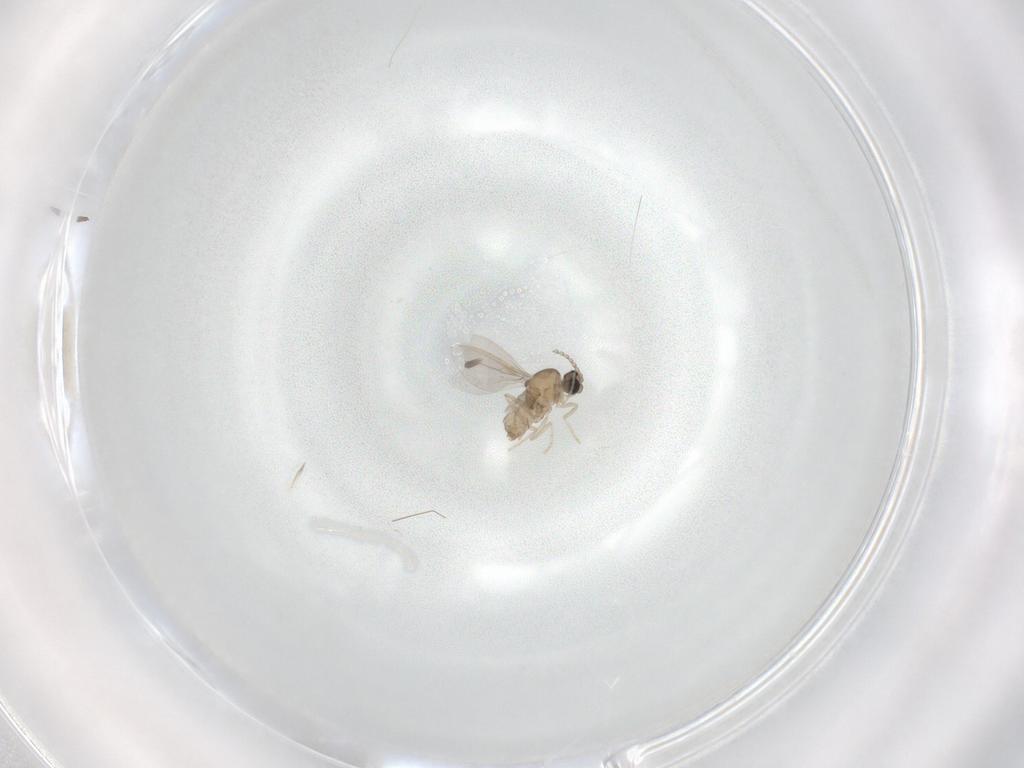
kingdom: Animalia
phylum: Arthropoda
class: Insecta
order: Diptera
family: Cecidomyiidae
